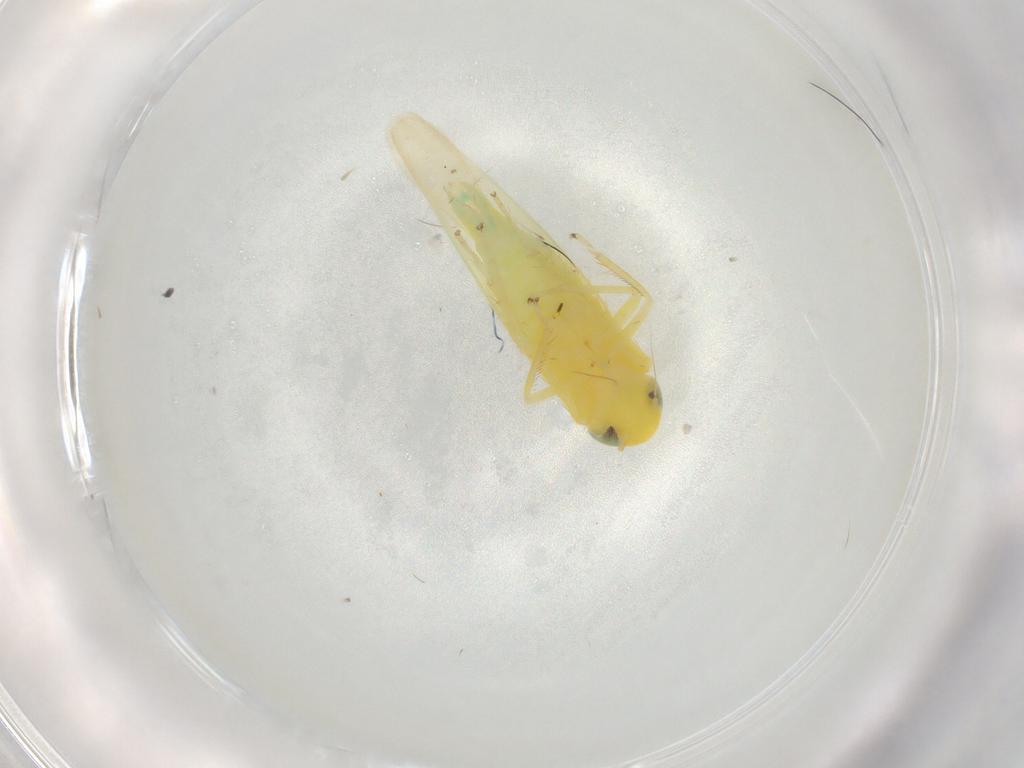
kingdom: Animalia
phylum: Arthropoda
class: Insecta
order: Hemiptera
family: Cicadellidae
